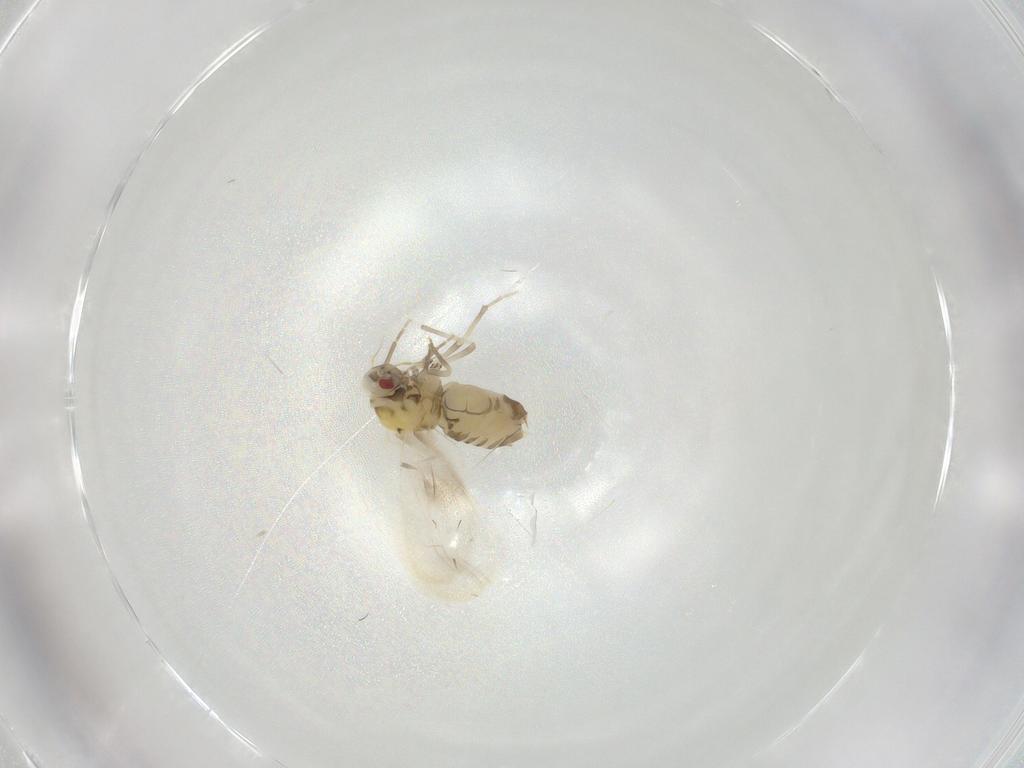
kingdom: Animalia
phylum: Arthropoda
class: Insecta
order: Hemiptera
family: Aleyrodidae
